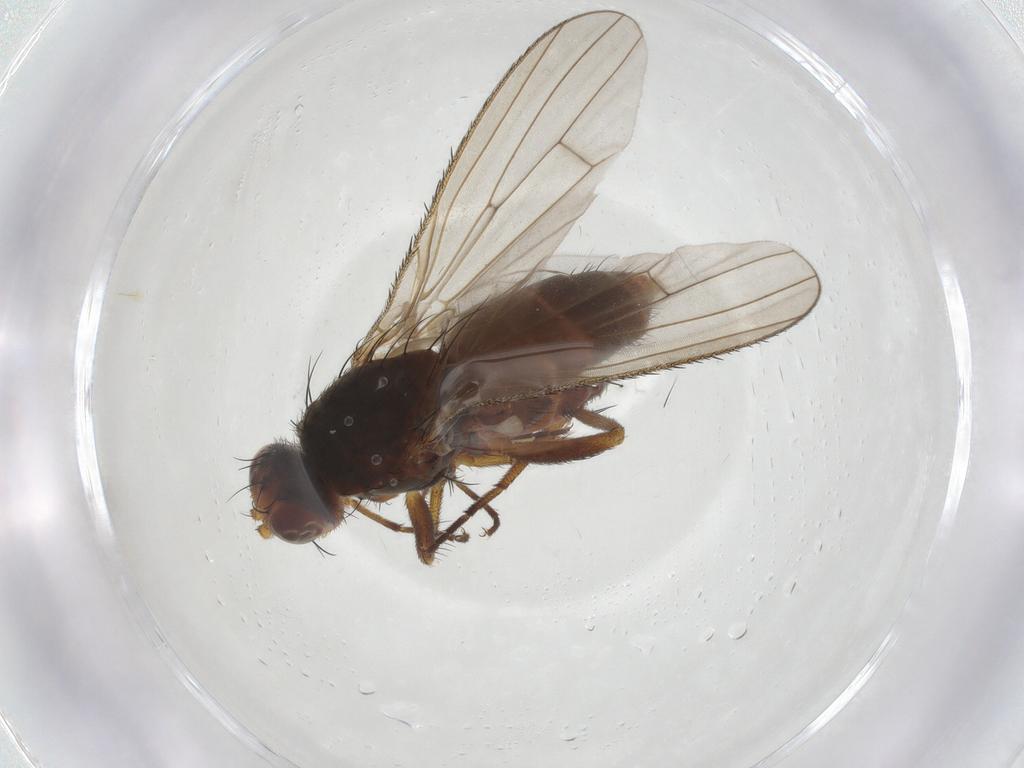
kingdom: Animalia
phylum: Arthropoda
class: Insecta
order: Diptera
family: Heleomyzidae
